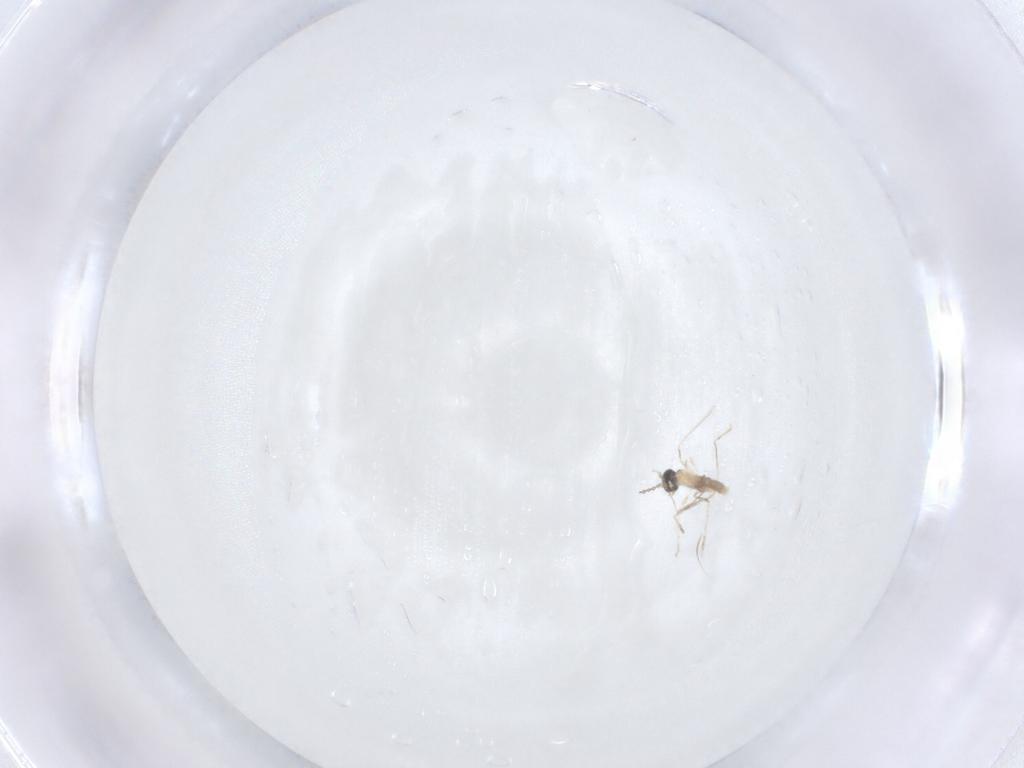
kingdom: Animalia
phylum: Arthropoda
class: Insecta
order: Diptera
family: Cecidomyiidae
